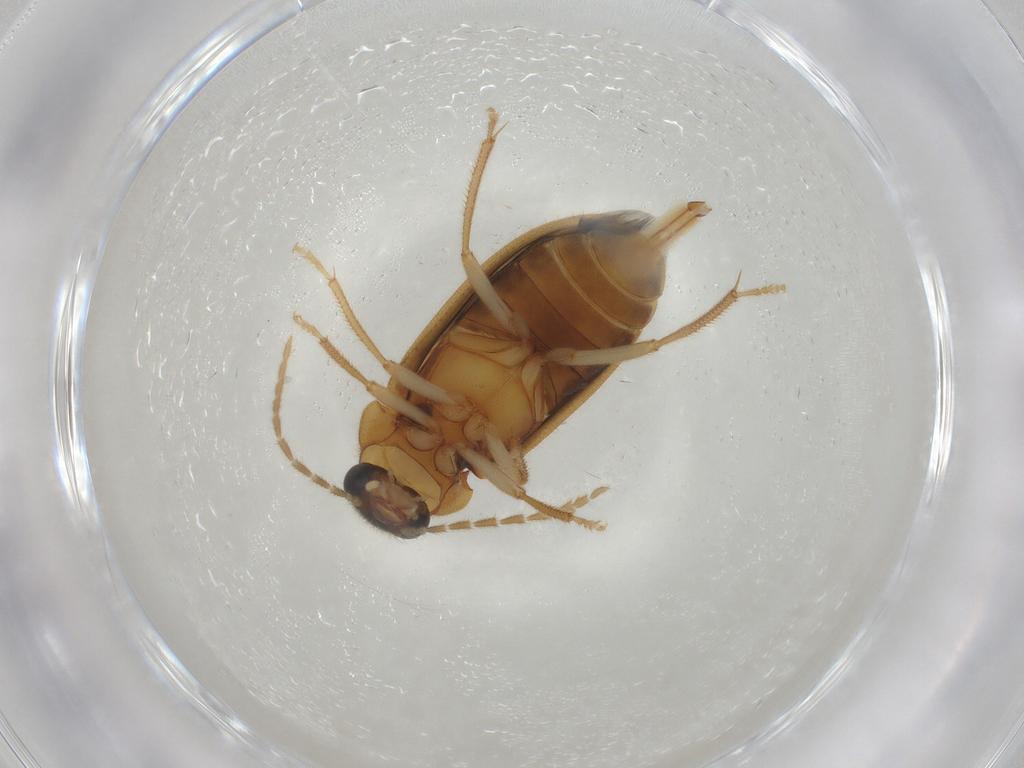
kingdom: Animalia
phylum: Arthropoda
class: Insecta
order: Coleoptera
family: Ptilodactylidae
